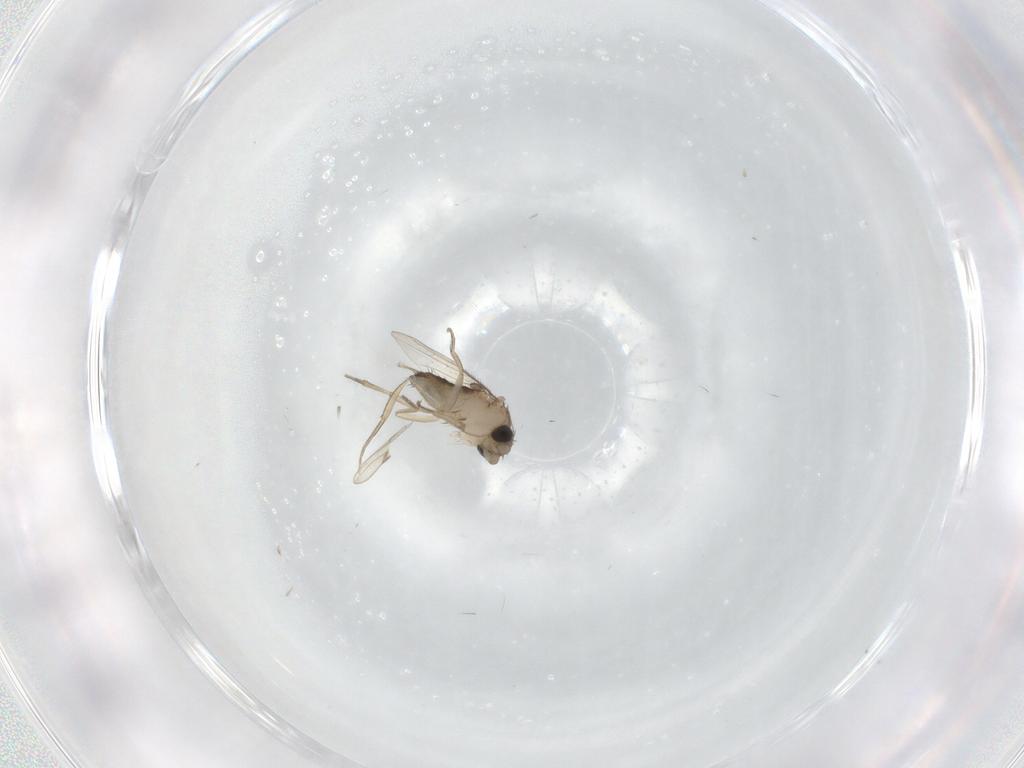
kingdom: Animalia
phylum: Arthropoda
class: Insecta
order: Diptera
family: Phoridae
